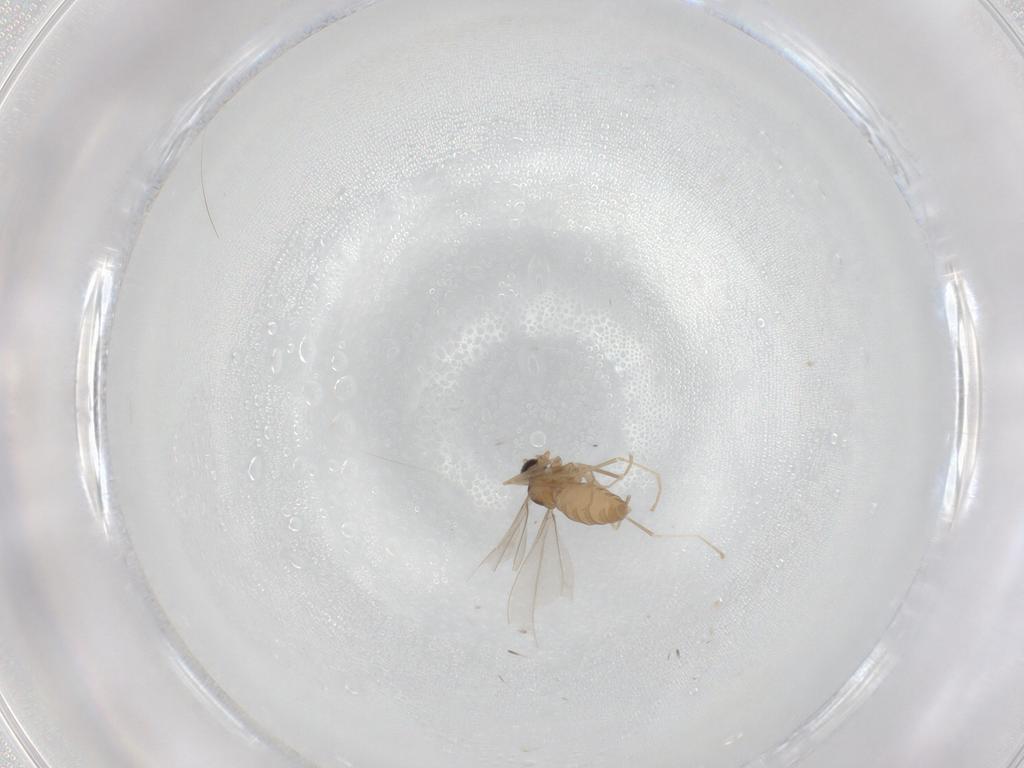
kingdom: Animalia
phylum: Arthropoda
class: Insecta
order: Diptera
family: Cecidomyiidae
